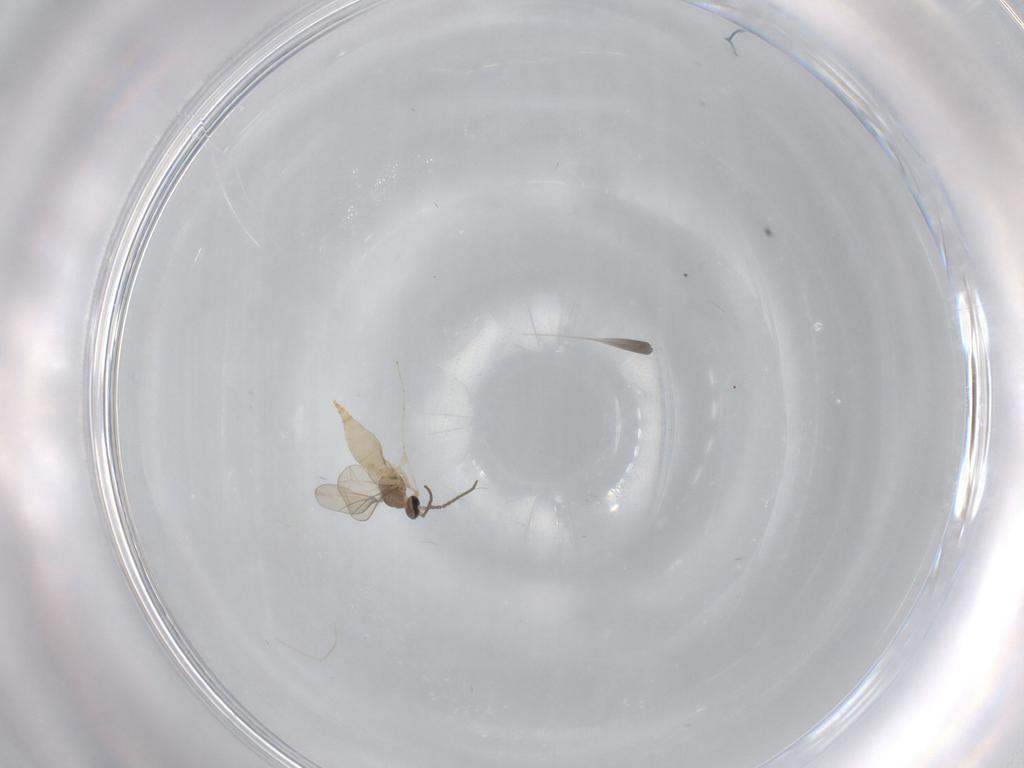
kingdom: Animalia
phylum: Arthropoda
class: Insecta
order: Diptera
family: Cecidomyiidae
